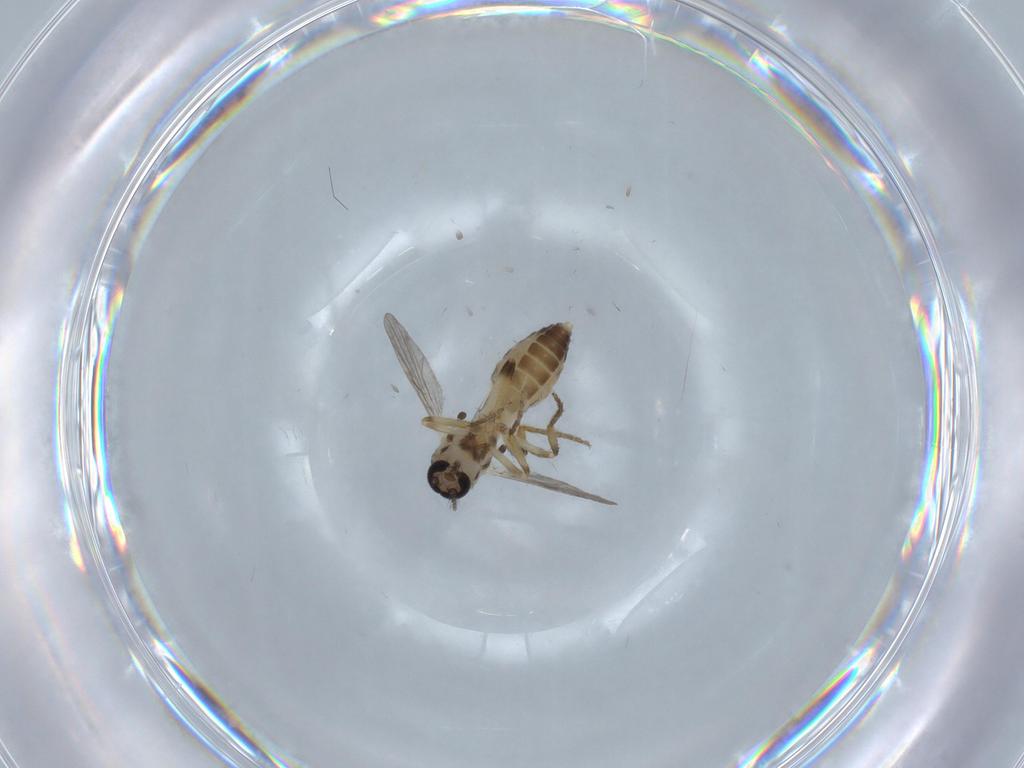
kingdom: Animalia
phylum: Arthropoda
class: Insecta
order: Diptera
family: Ceratopogonidae
